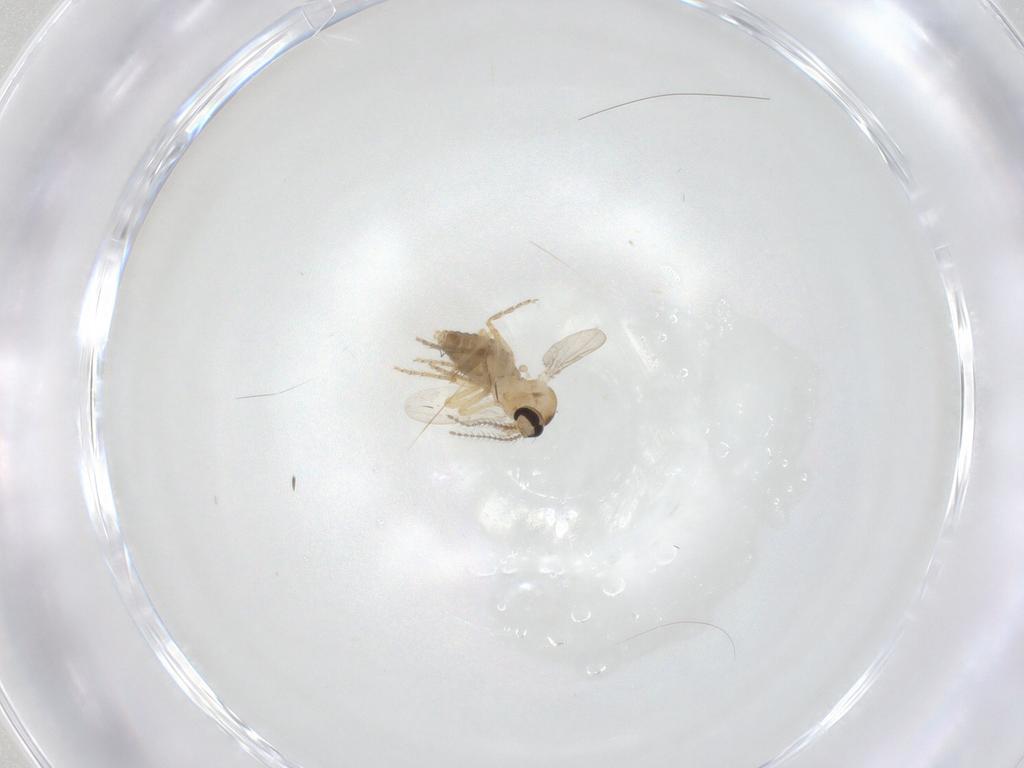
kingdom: Animalia
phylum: Arthropoda
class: Insecta
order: Diptera
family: Ceratopogonidae
